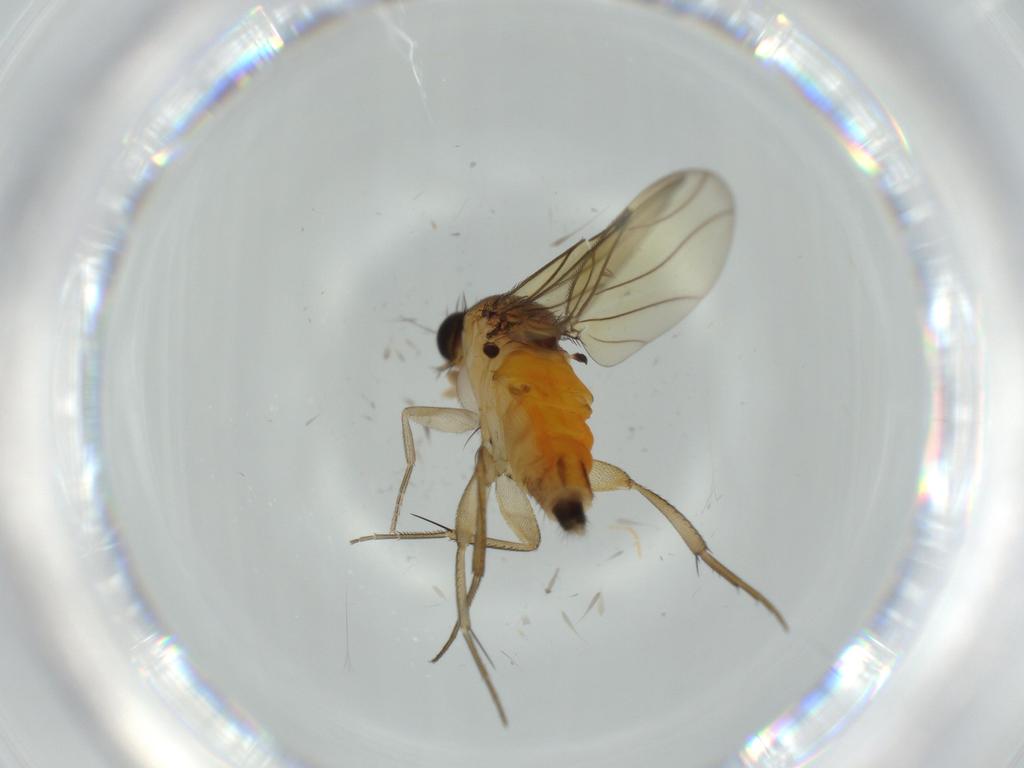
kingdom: Animalia
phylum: Arthropoda
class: Insecta
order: Diptera
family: Phoridae
